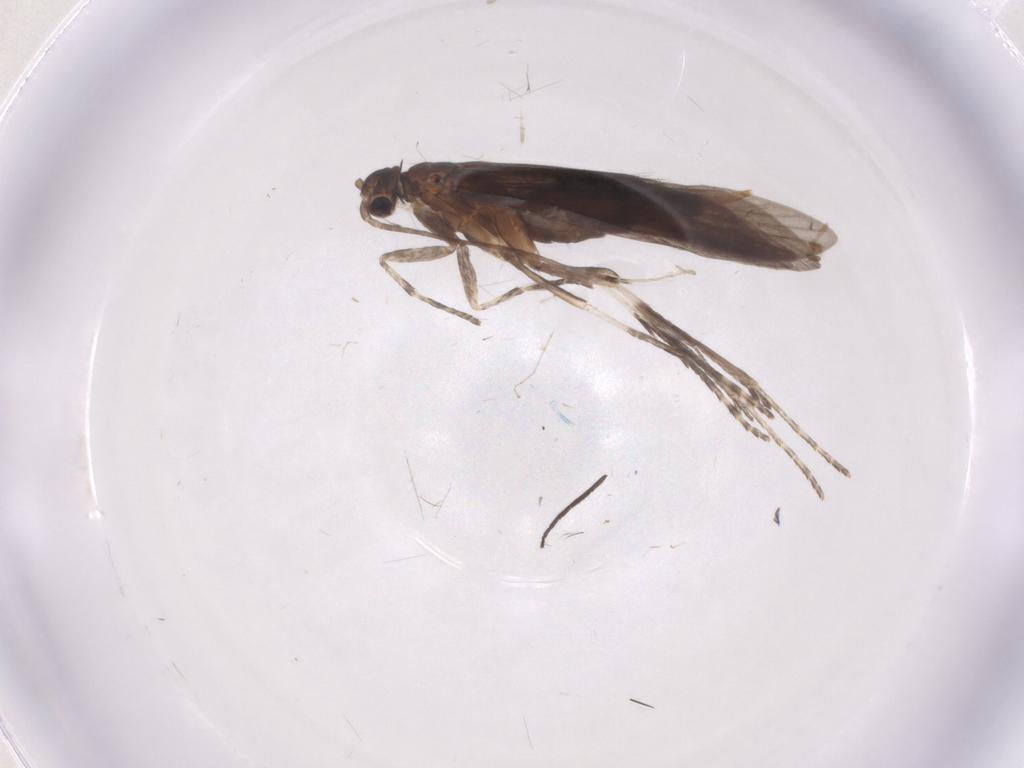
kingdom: Animalia
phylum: Arthropoda
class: Insecta
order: Trichoptera
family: Xiphocentronidae
